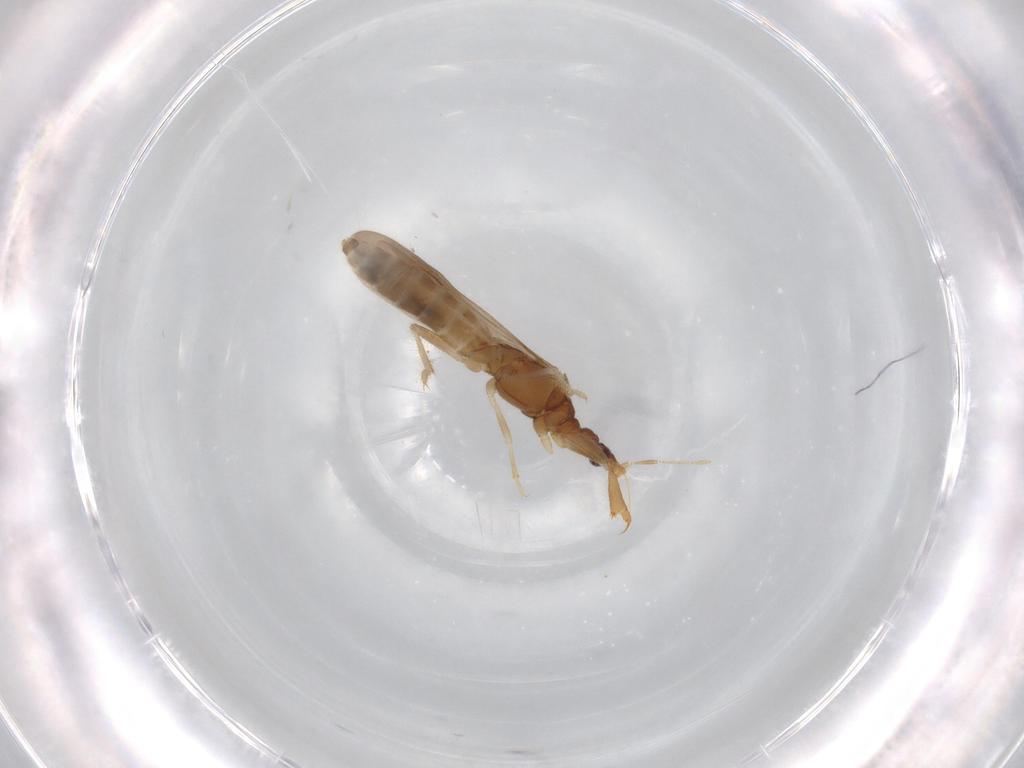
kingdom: Animalia
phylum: Arthropoda
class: Insecta
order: Hemiptera
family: Enicocephalidae
